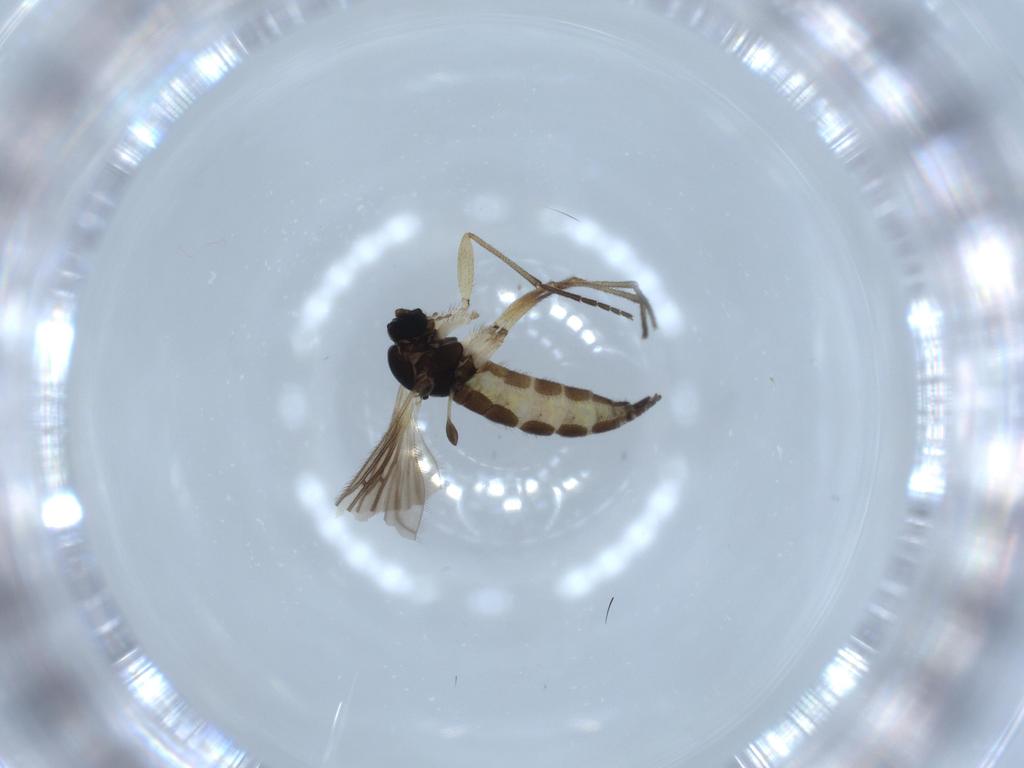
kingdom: Animalia
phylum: Arthropoda
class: Insecta
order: Diptera
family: Sciaridae
